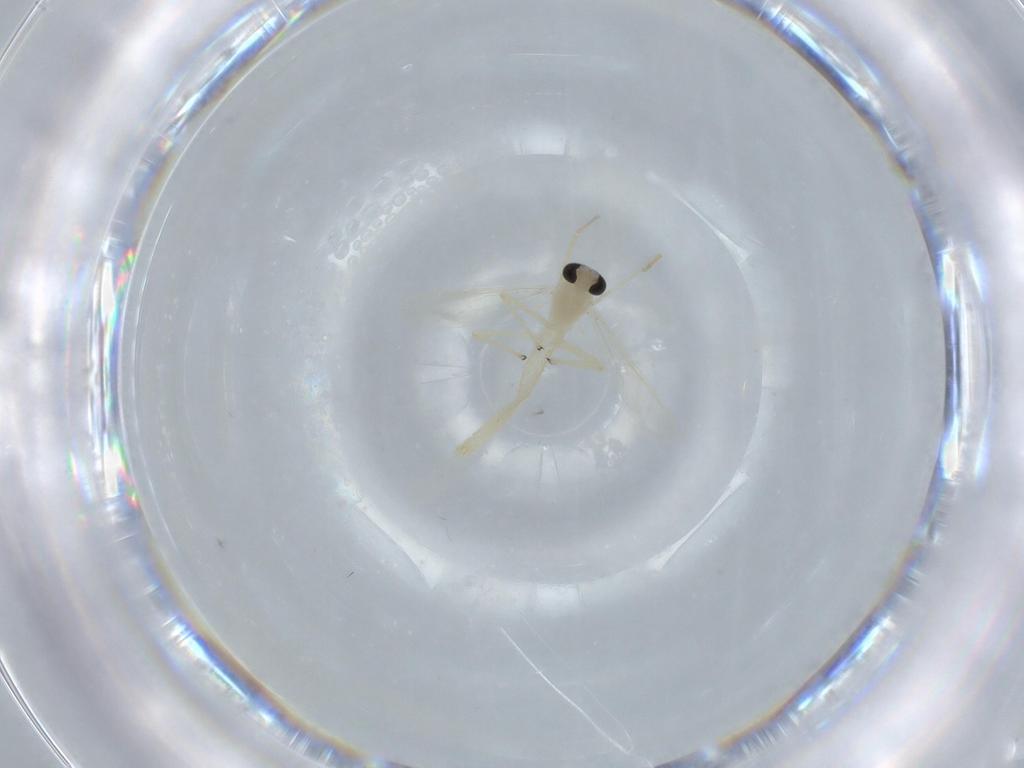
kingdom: Animalia
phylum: Arthropoda
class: Insecta
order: Diptera
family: Chironomidae
